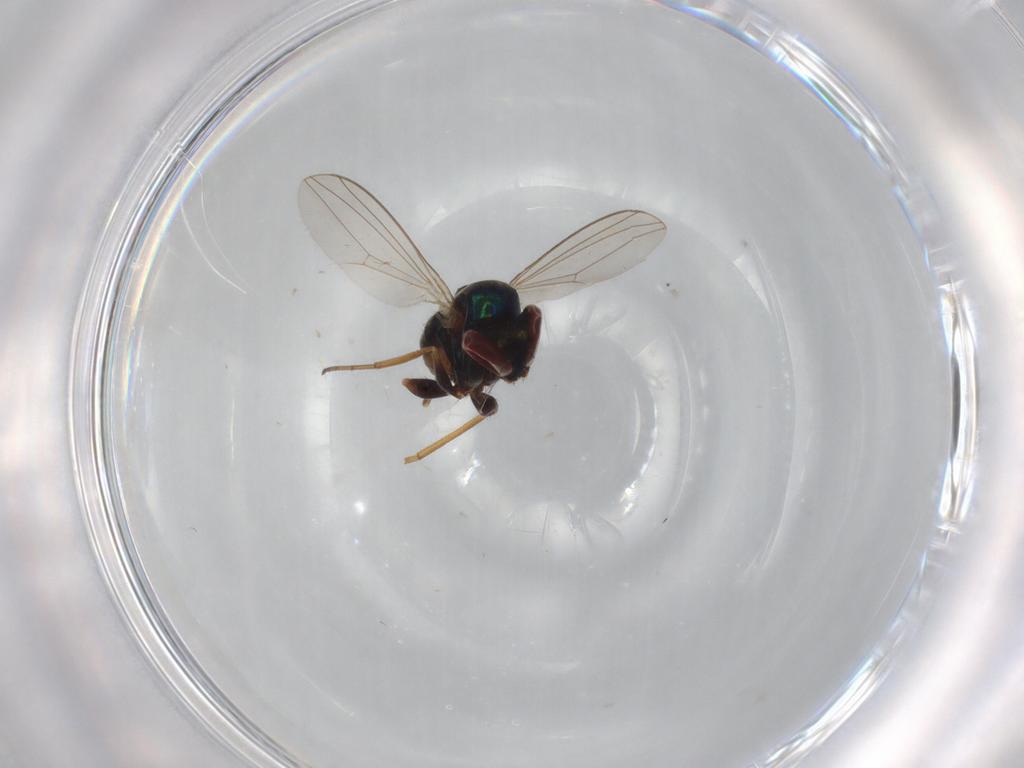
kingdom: Animalia
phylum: Arthropoda
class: Insecta
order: Diptera
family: Dolichopodidae
